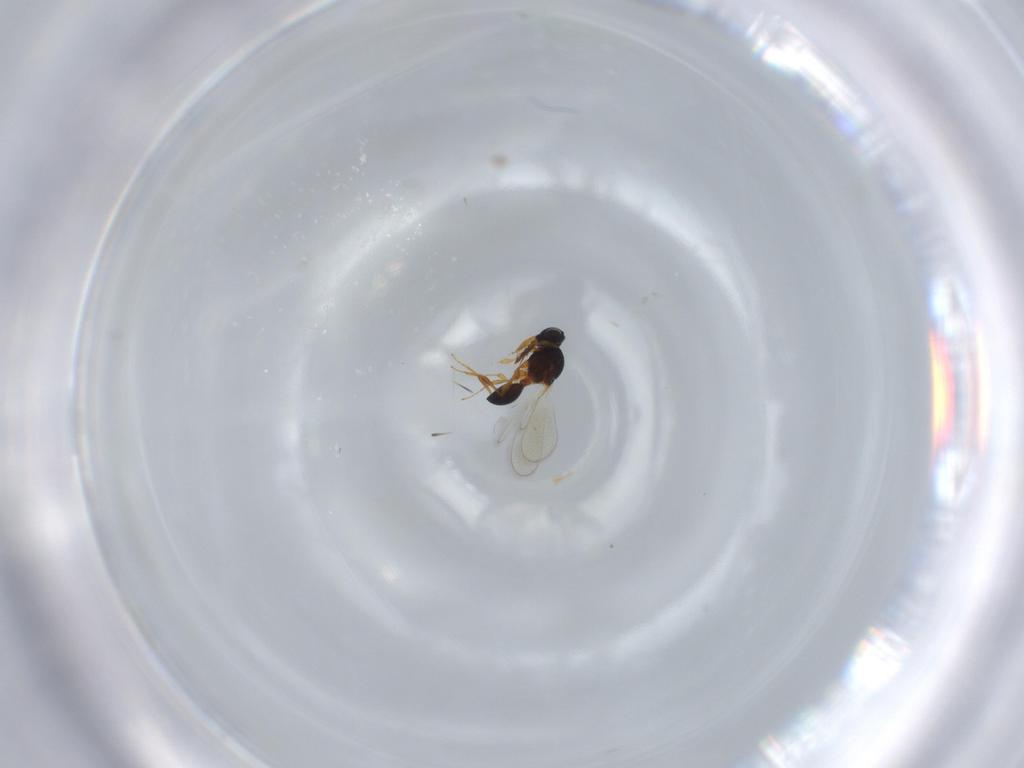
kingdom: Animalia
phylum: Arthropoda
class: Insecta
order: Hymenoptera
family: Platygastridae
